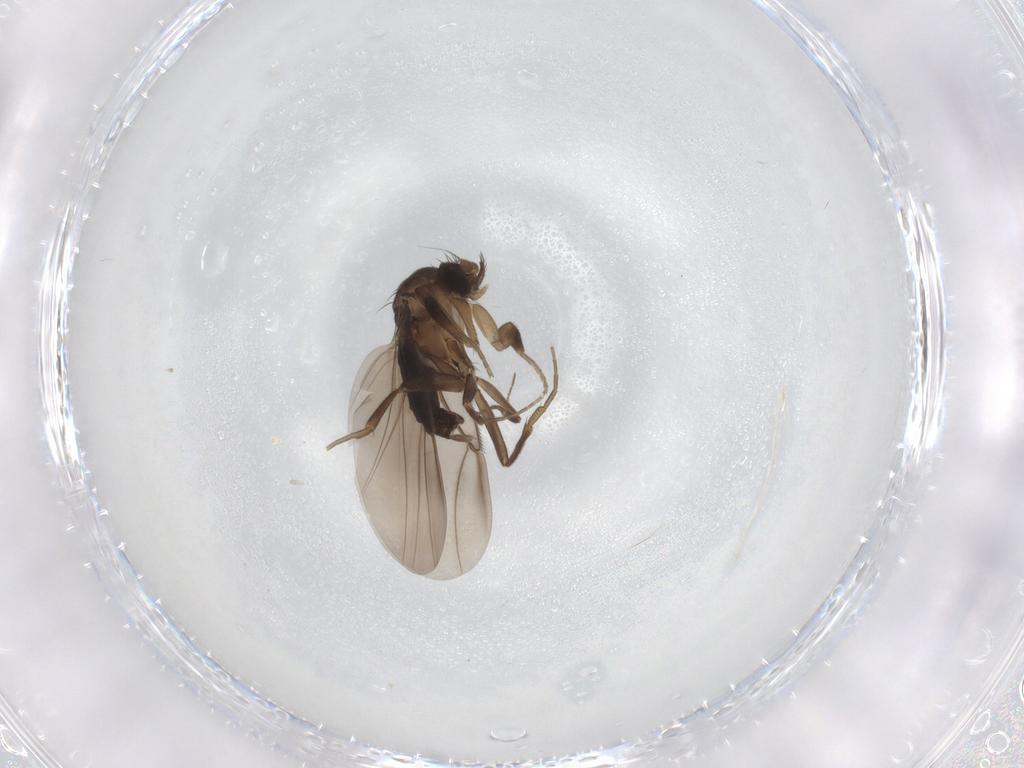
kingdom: Animalia
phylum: Arthropoda
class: Insecta
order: Diptera
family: Phoridae
